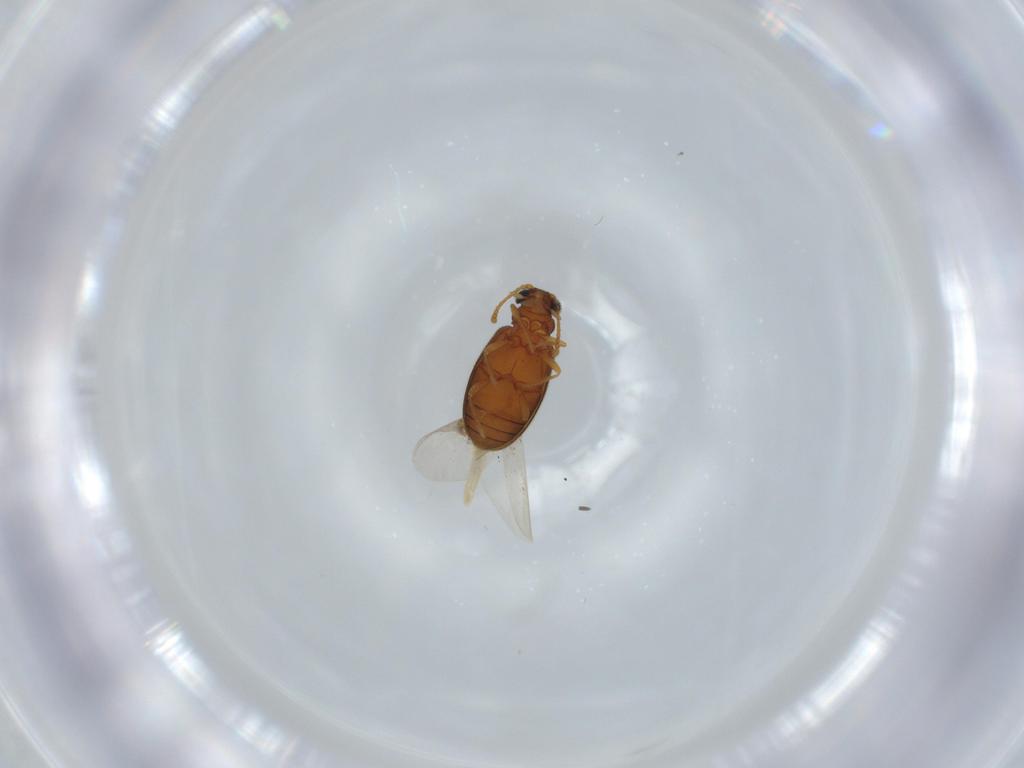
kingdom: Animalia
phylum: Arthropoda
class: Insecta
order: Coleoptera
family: Aderidae
